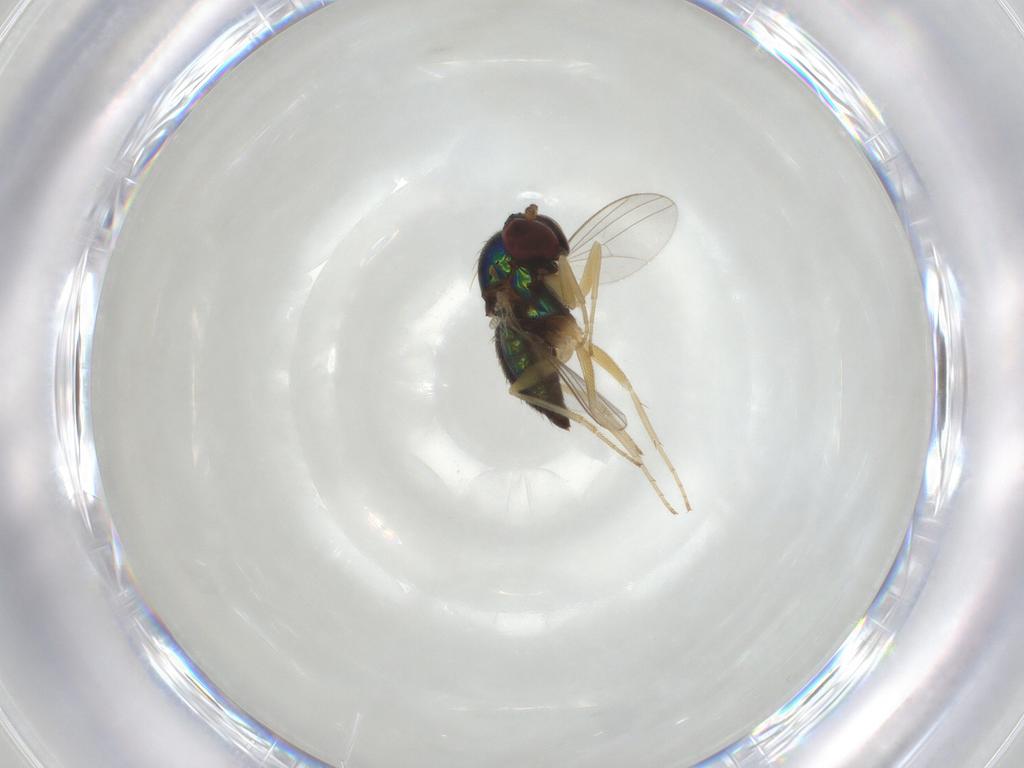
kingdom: Animalia
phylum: Arthropoda
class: Insecta
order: Diptera
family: Dolichopodidae
